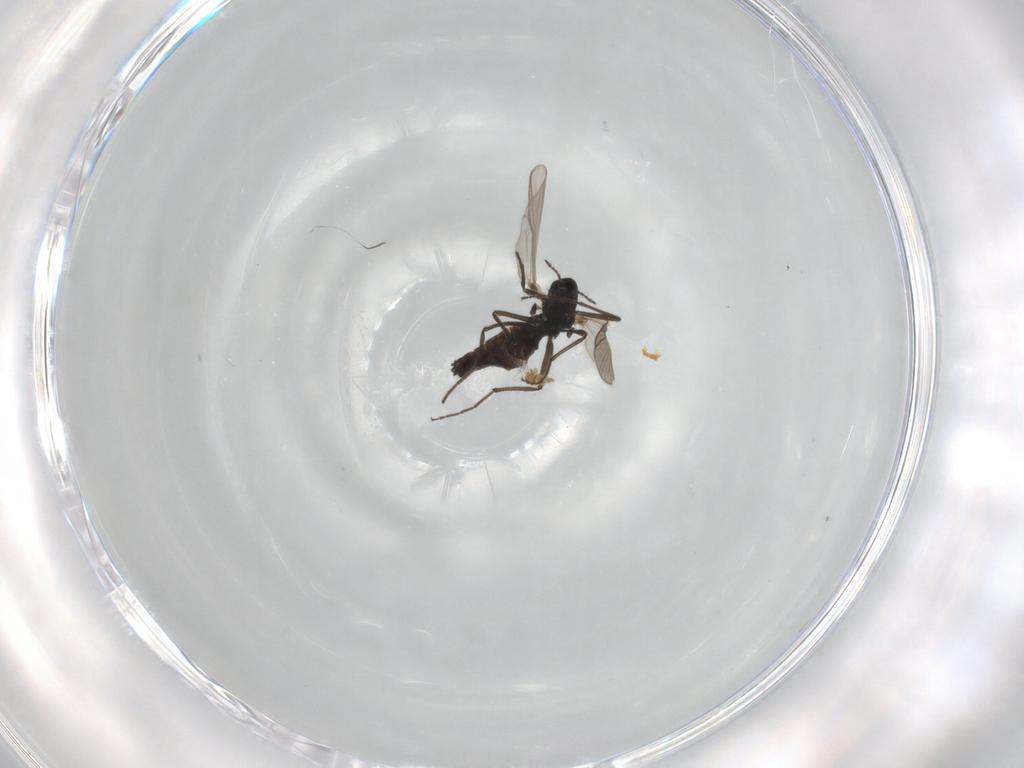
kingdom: Animalia
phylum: Arthropoda
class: Insecta
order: Diptera
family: Chironomidae
